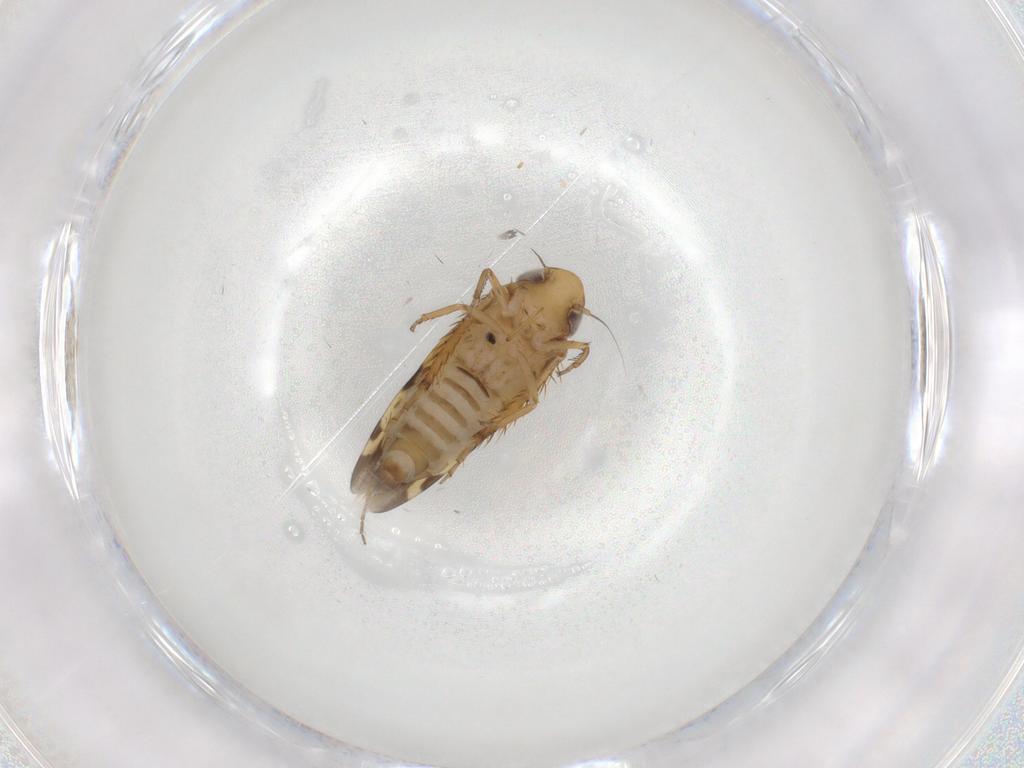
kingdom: Animalia
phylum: Arthropoda
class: Insecta
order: Hemiptera
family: Cicadellidae
